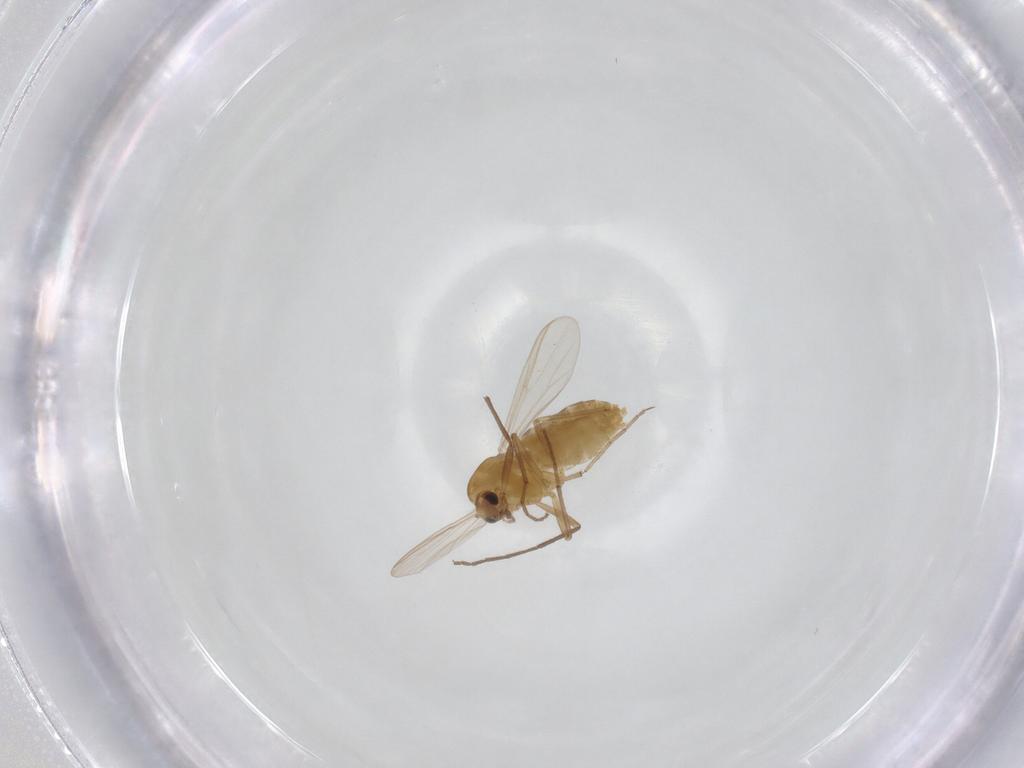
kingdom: Animalia
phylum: Arthropoda
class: Insecta
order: Diptera
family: Chironomidae
